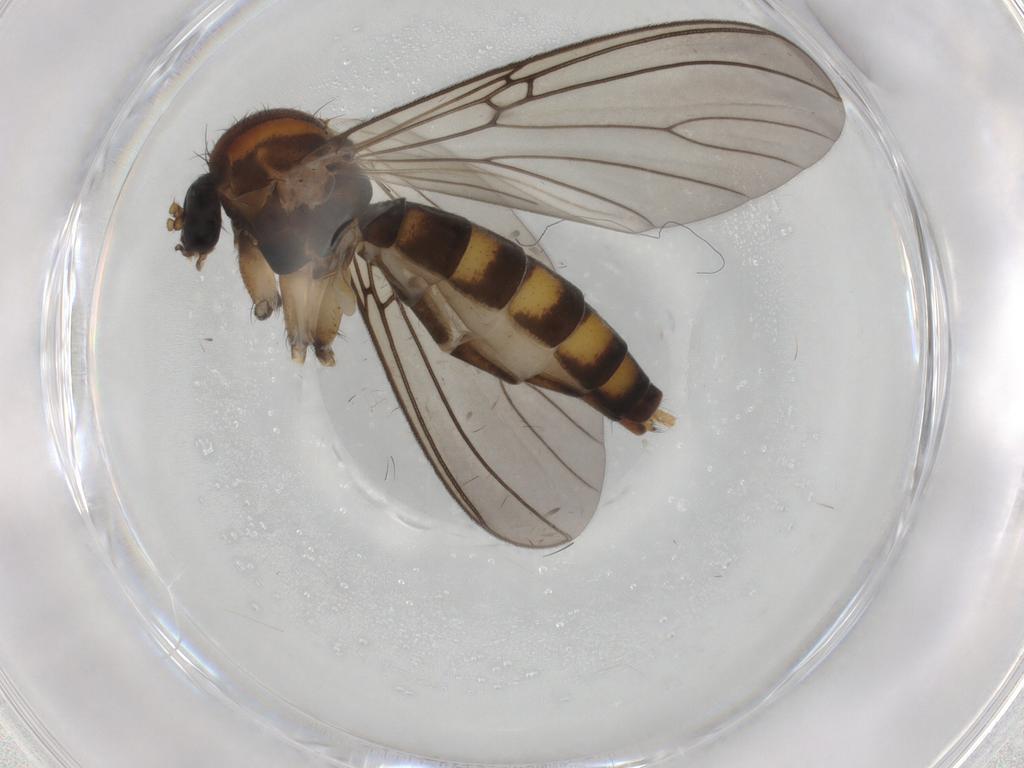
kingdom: Animalia
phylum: Arthropoda
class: Insecta
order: Diptera
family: Mycetophilidae
